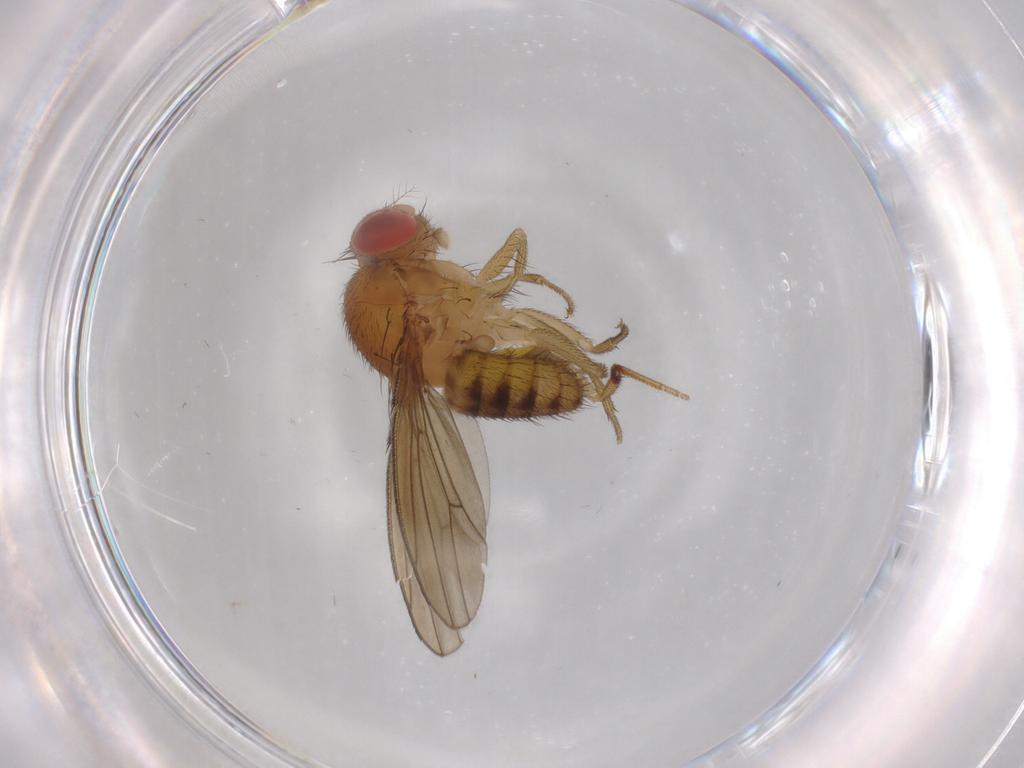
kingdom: Animalia
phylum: Arthropoda
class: Insecta
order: Diptera
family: Drosophilidae
